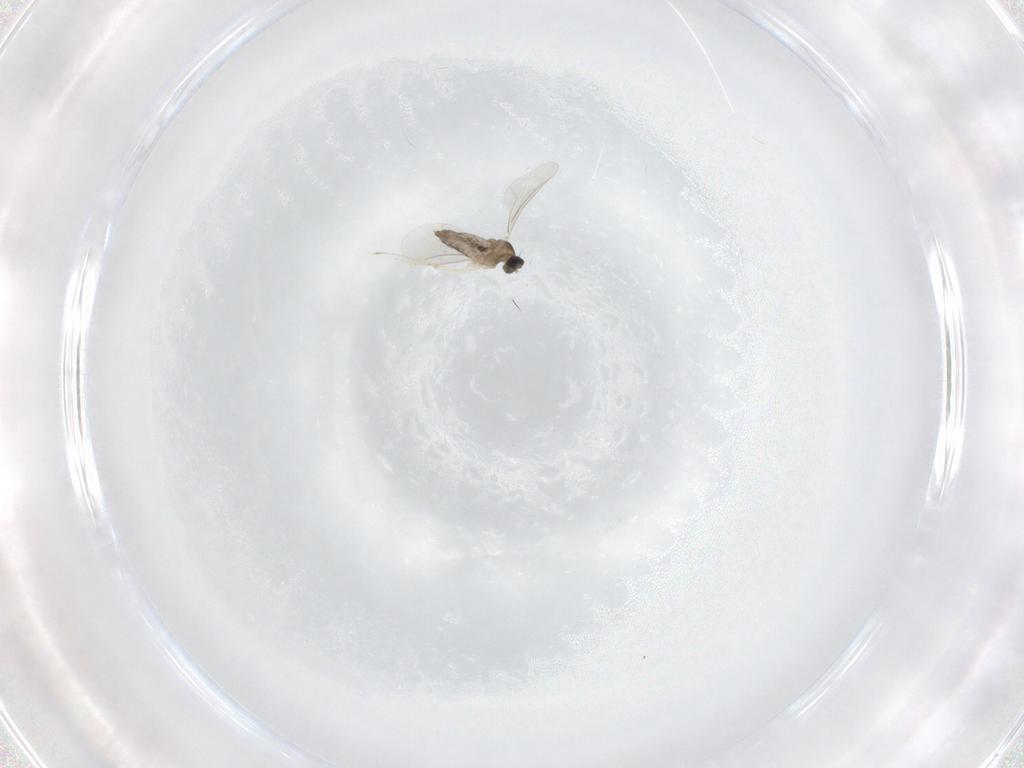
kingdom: Animalia
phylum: Arthropoda
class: Insecta
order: Diptera
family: Cecidomyiidae
